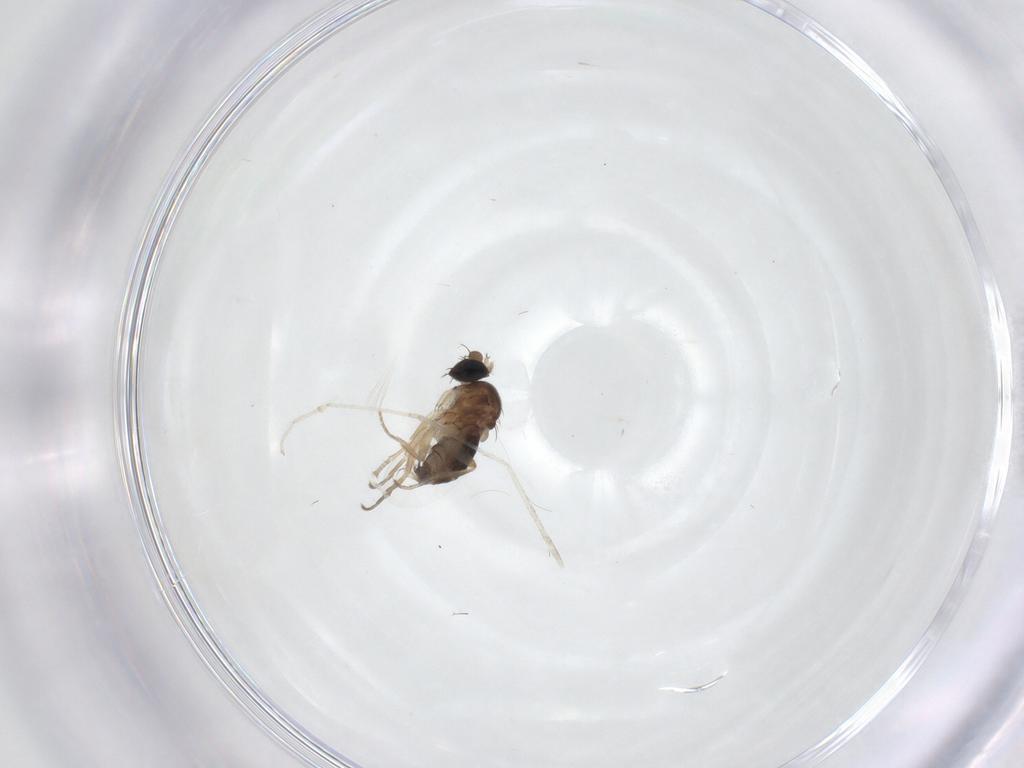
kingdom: Animalia
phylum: Arthropoda
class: Insecta
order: Diptera
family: Cecidomyiidae
